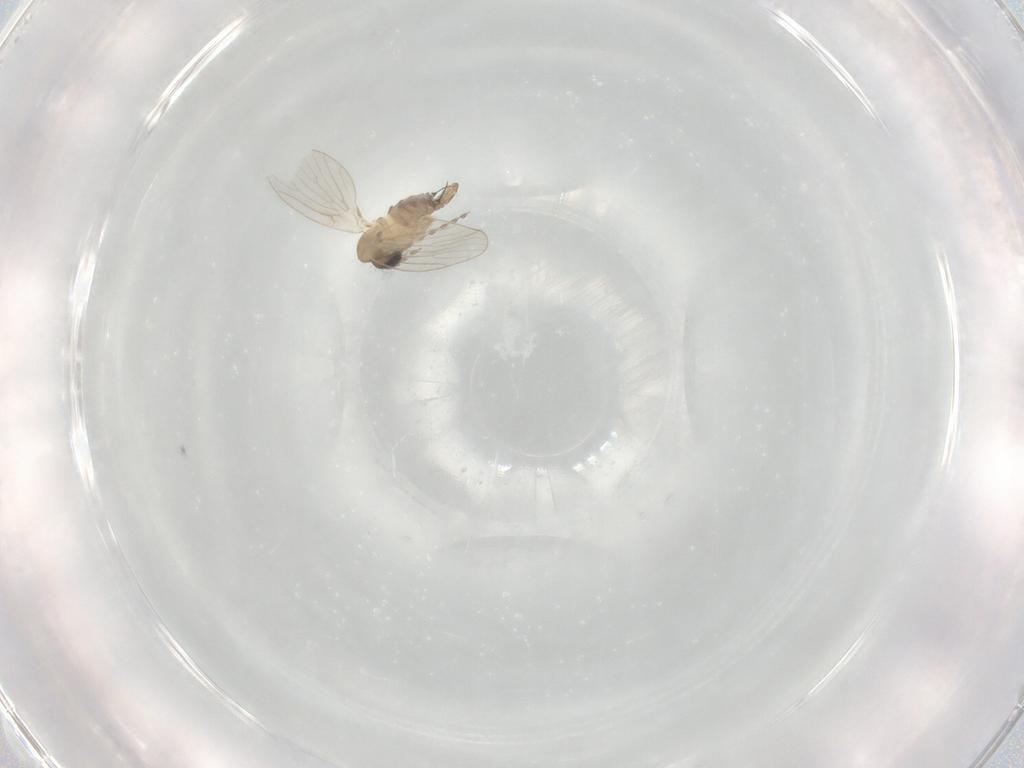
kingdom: Animalia
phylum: Arthropoda
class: Insecta
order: Diptera
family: Psychodidae
